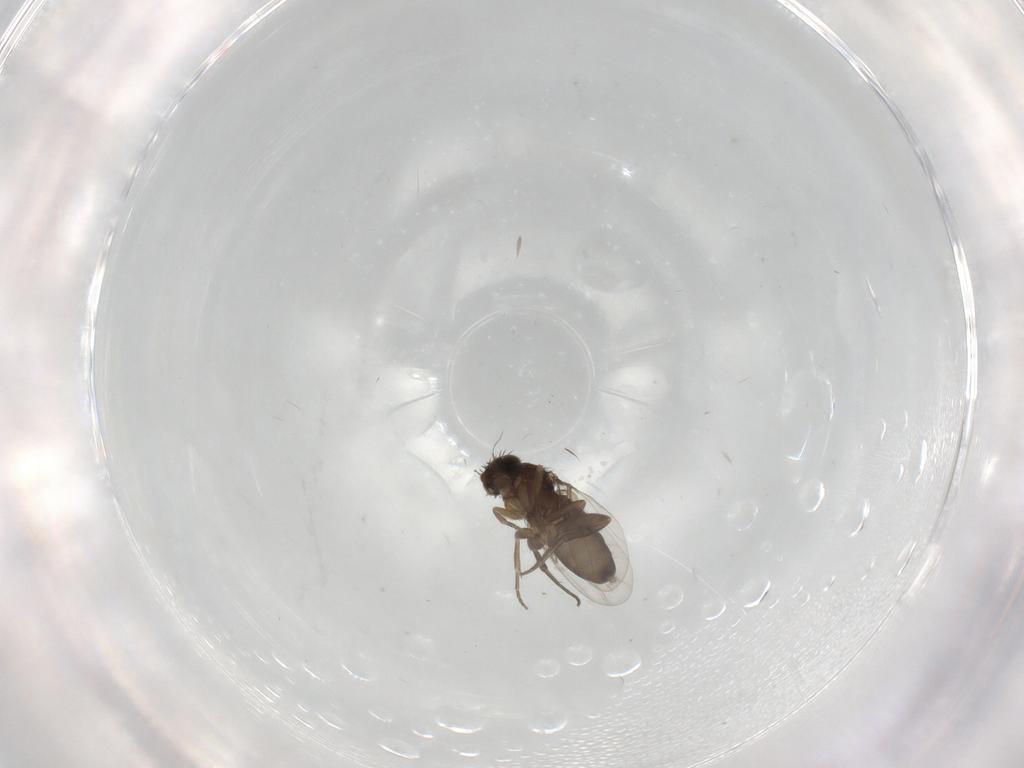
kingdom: Animalia
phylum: Arthropoda
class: Insecta
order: Diptera
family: Phoridae
